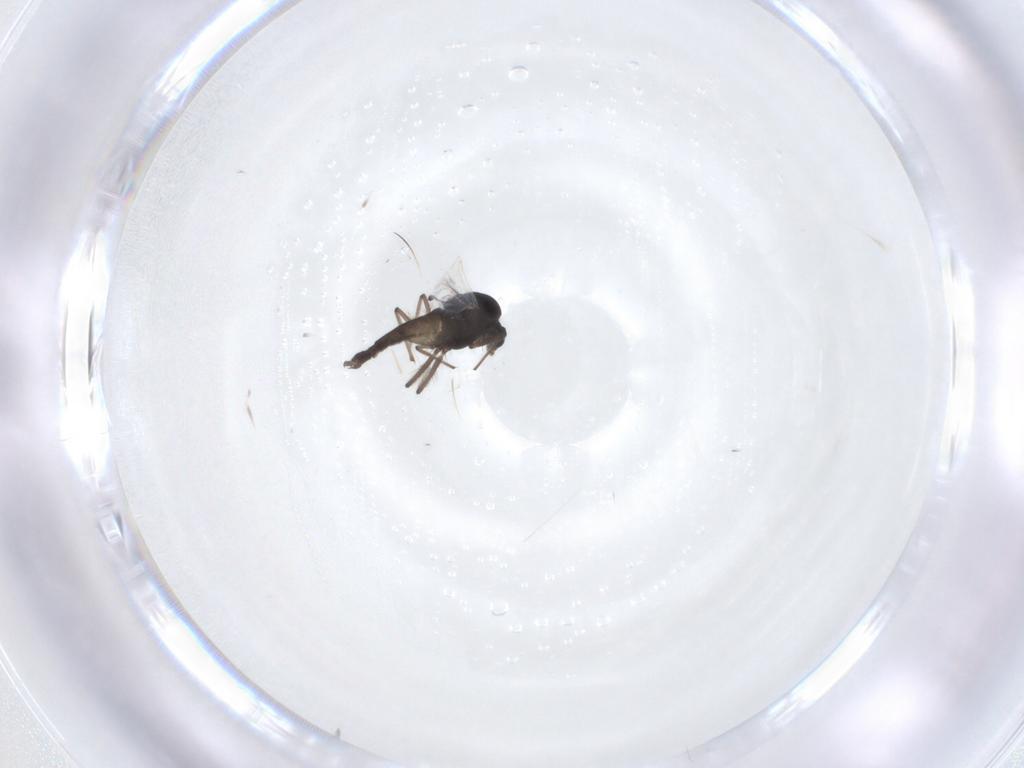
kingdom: Animalia
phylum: Arthropoda
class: Insecta
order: Diptera
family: Chironomidae
